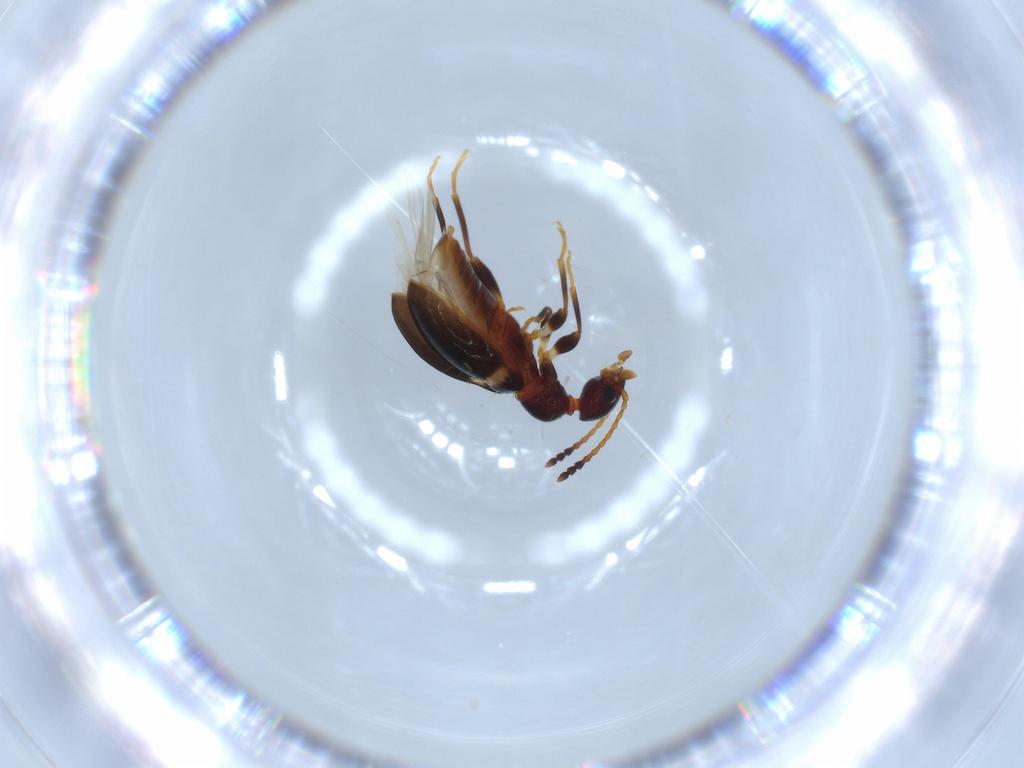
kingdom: Animalia
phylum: Arthropoda
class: Insecta
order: Coleoptera
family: Anthicidae
